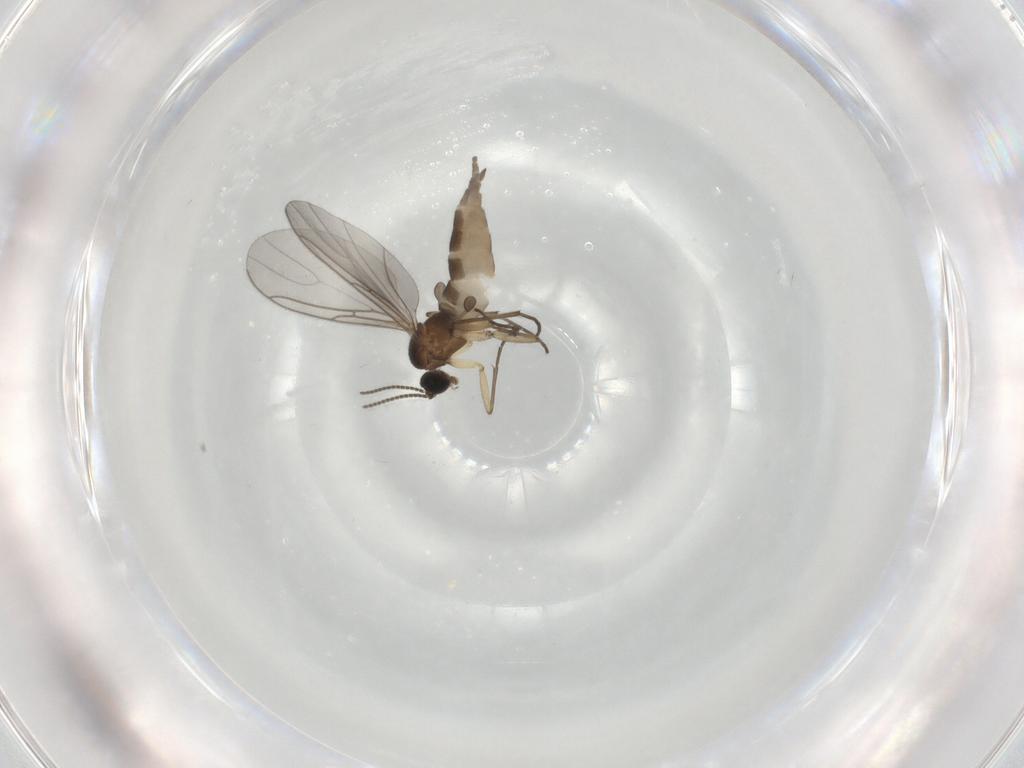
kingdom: Animalia
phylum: Arthropoda
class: Insecta
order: Diptera
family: Sciaridae
